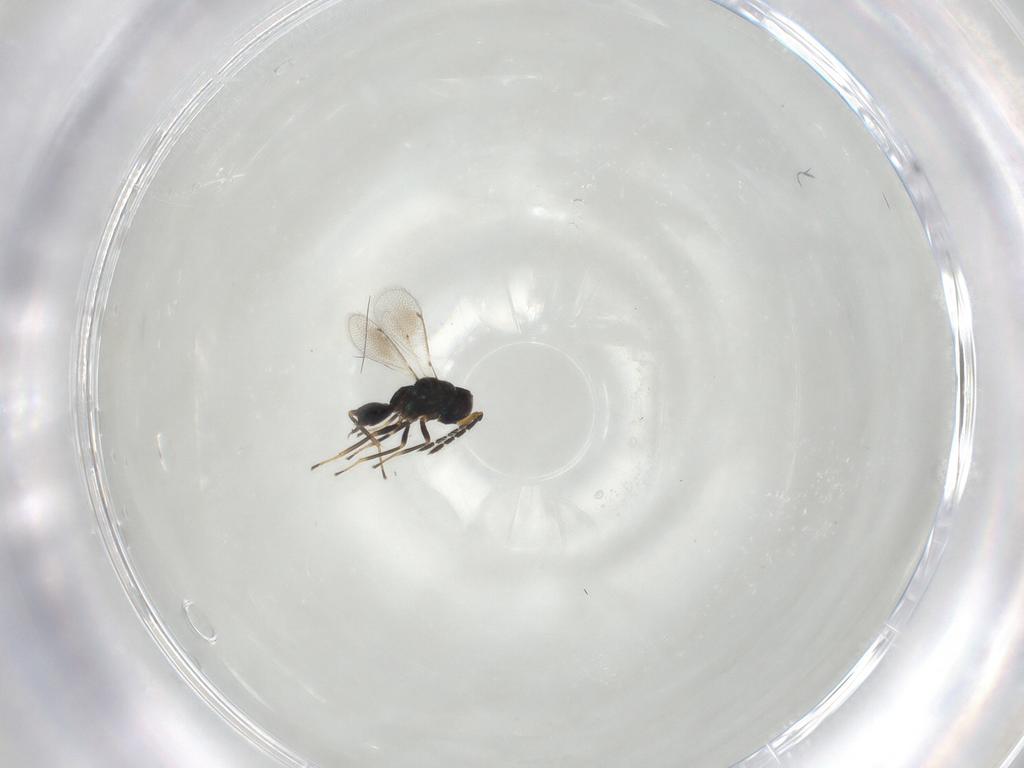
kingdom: Animalia
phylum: Arthropoda
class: Insecta
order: Hymenoptera
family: Eulophidae
